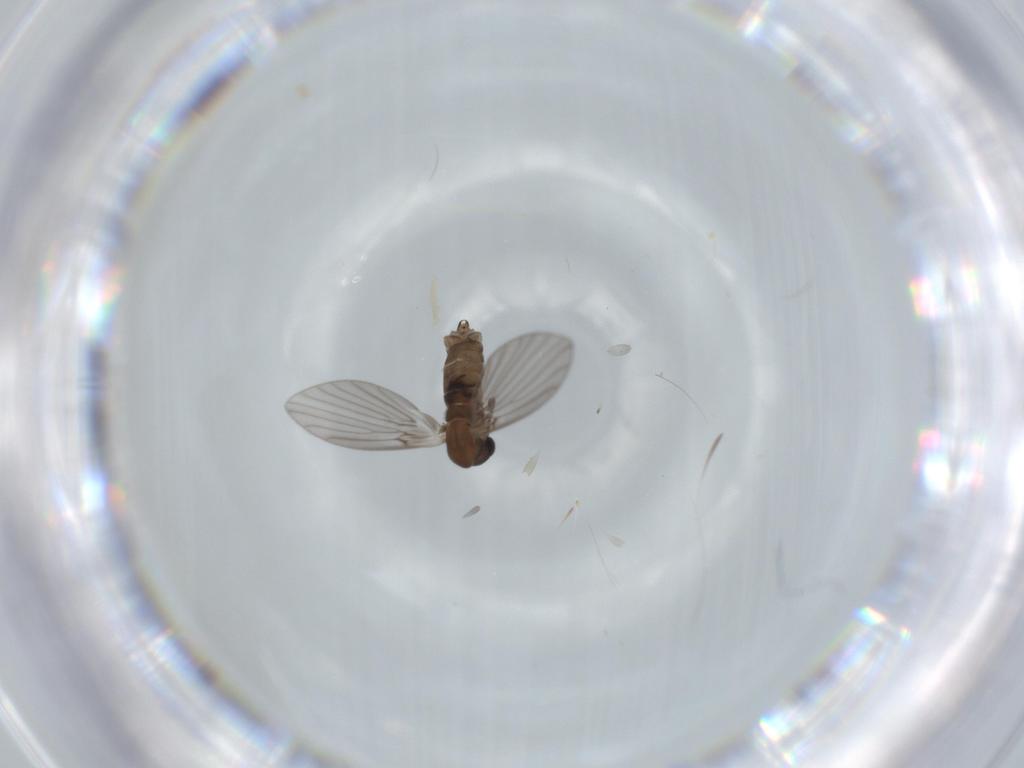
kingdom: Animalia
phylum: Arthropoda
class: Insecta
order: Diptera
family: Psychodidae
